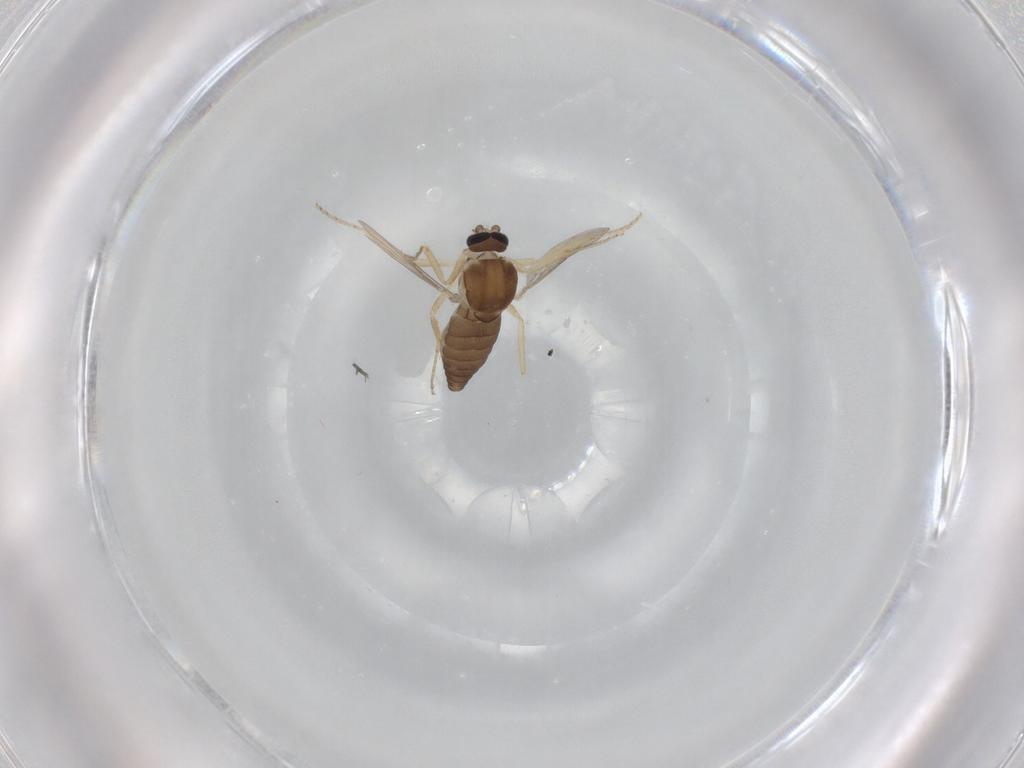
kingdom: Animalia
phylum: Arthropoda
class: Insecta
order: Diptera
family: Ceratopogonidae
